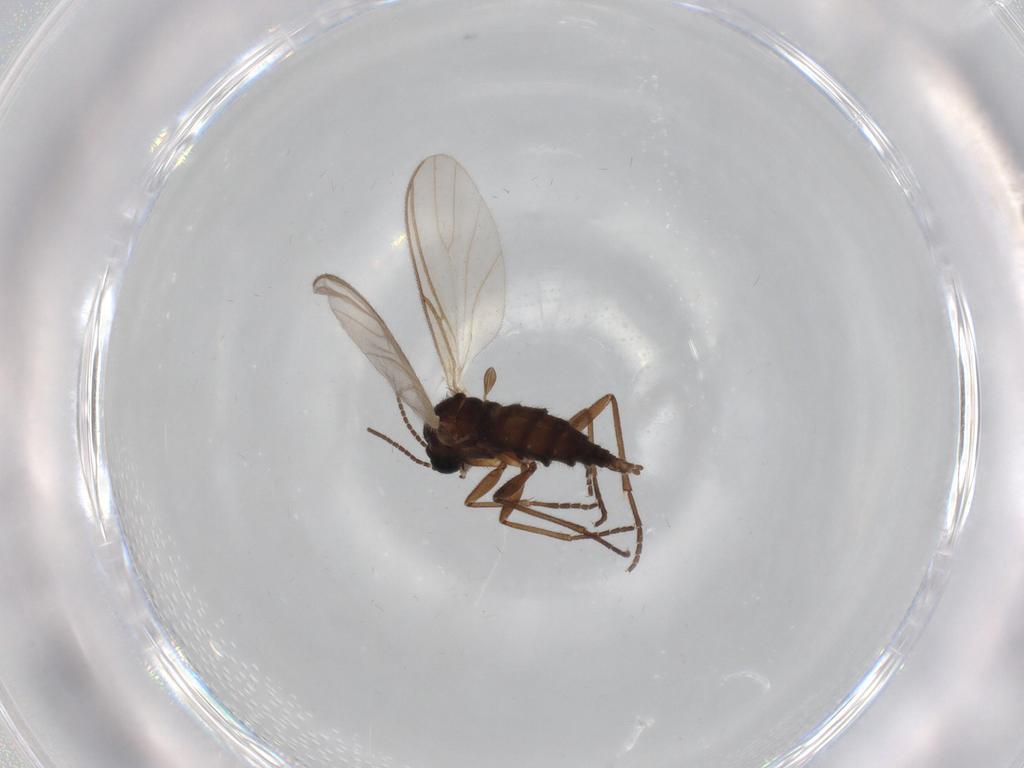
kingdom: Animalia
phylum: Arthropoda
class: Insecta
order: Diptera
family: Sciaridae
